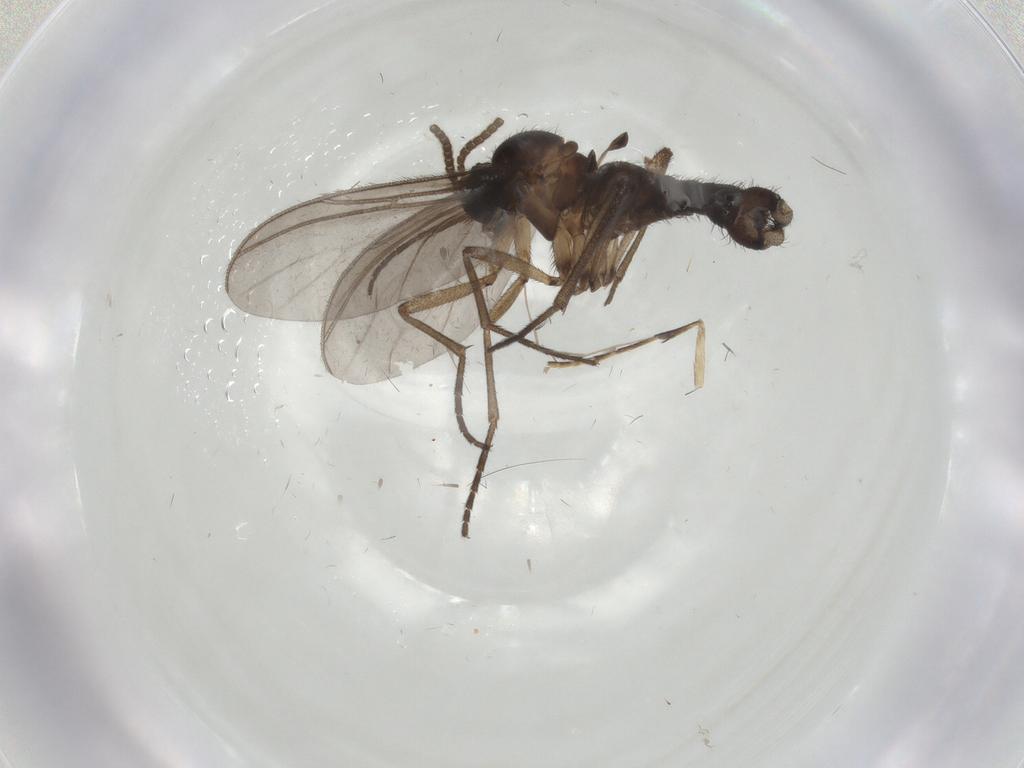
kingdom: Animalia
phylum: Arthropoda
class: Insecta
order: Diptera
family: Sciaridae
